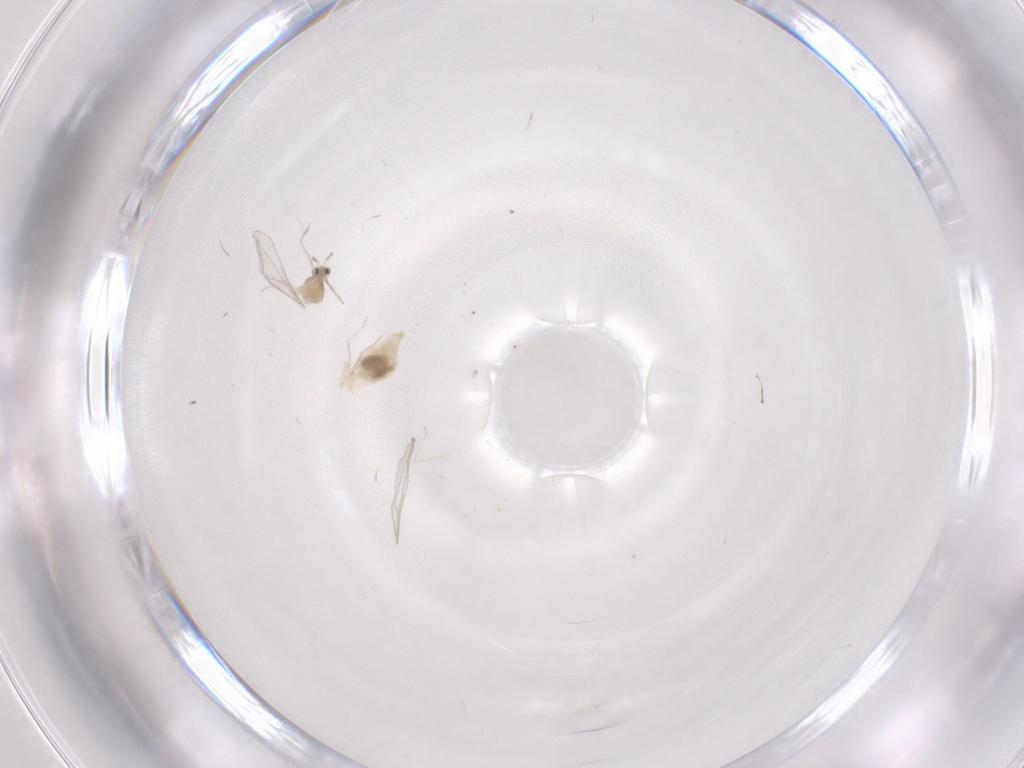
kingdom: Animalia
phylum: Arthropoda
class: Insecta
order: Diptera
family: Cecidomyiidae
